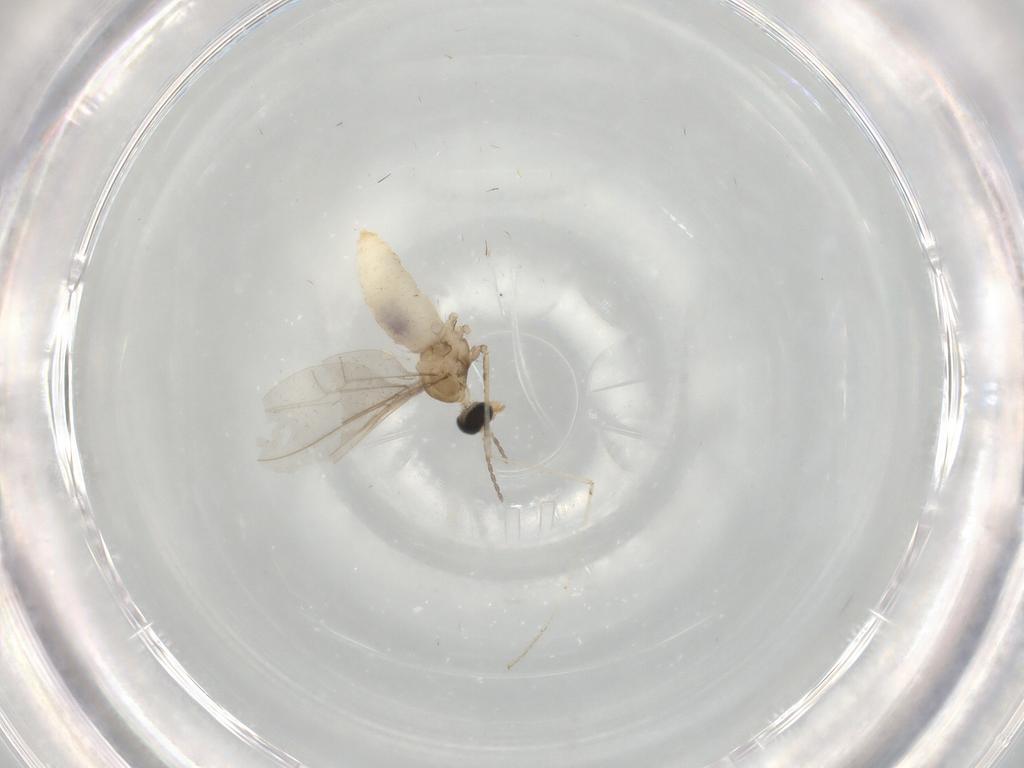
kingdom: Animalia
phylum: Arthropoda
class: Insecta
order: Diptera
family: Cecidomyiidae
